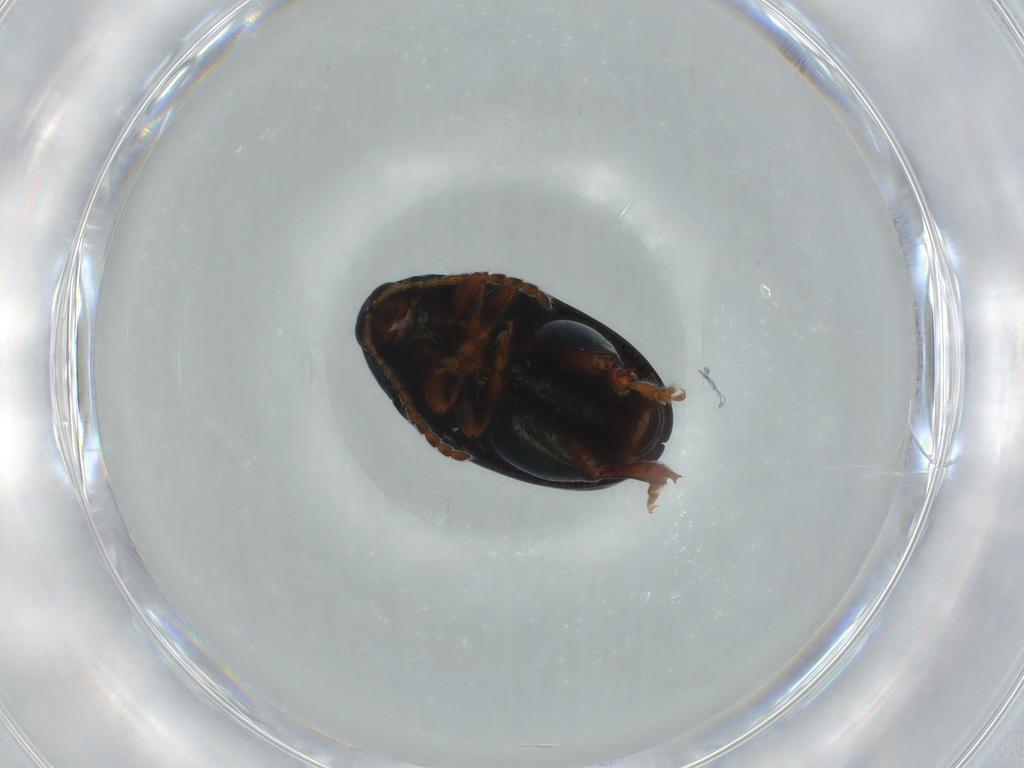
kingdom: Animalia
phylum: Arthropoda
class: Insecta
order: Coleoptera
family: Chrysomelidae
